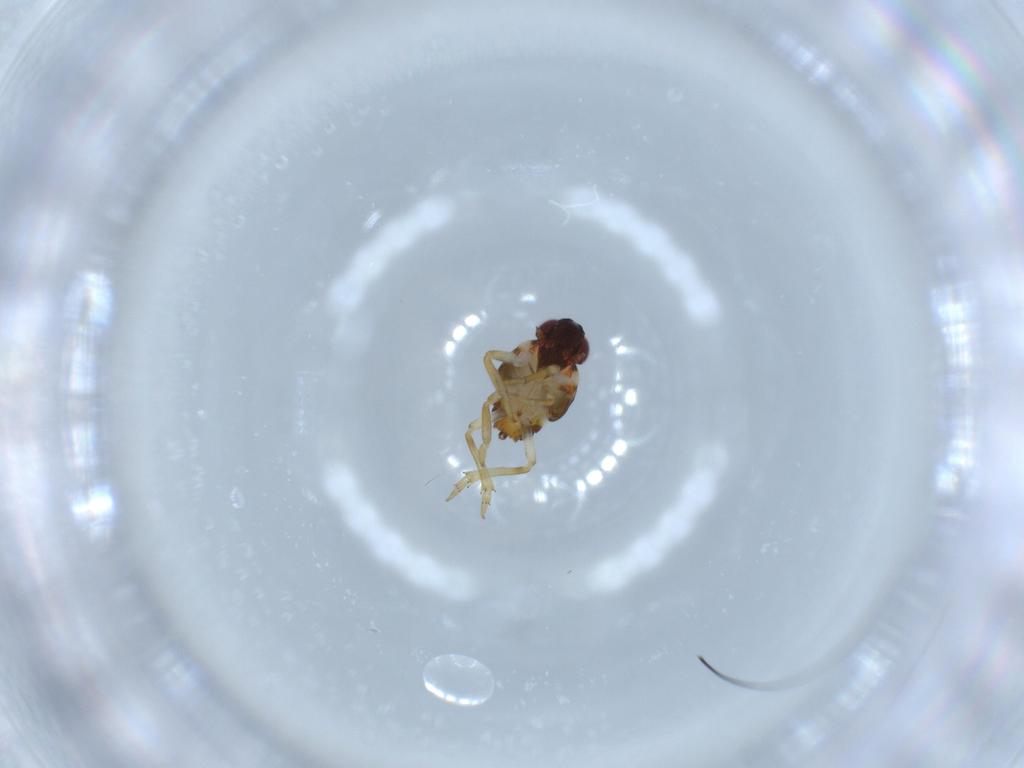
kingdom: Animalia
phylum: Arthropoda
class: Insecta
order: Hemiptera
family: Issidae
